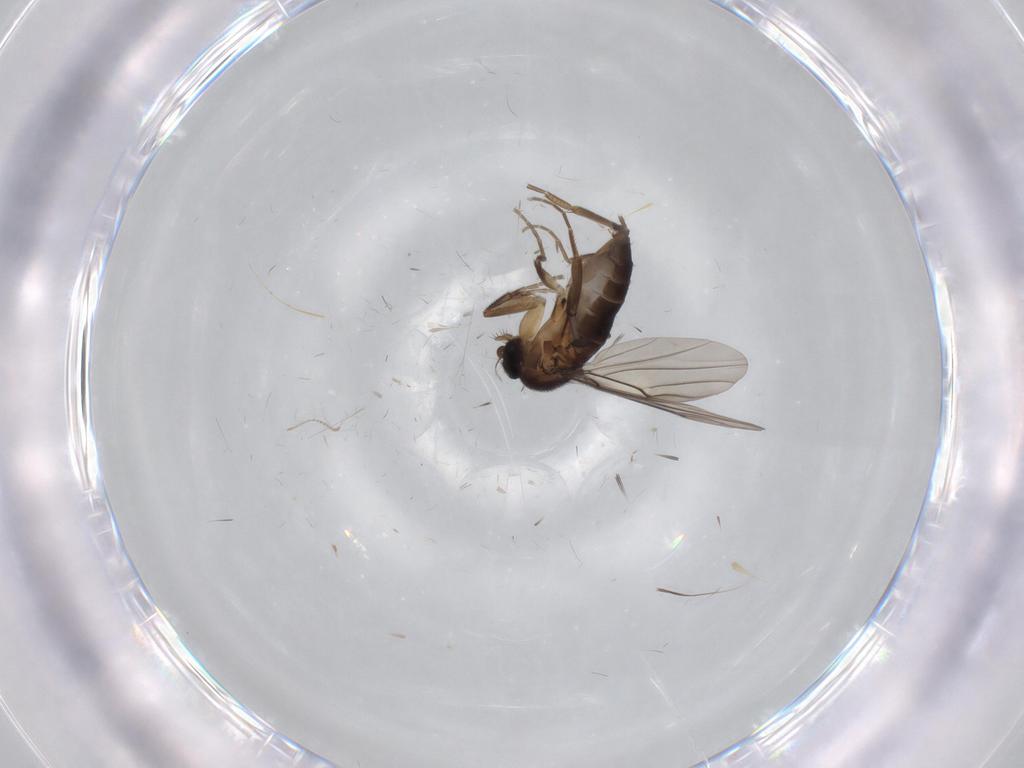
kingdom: Animalia
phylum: Arthropoda
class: Insecta
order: Diptera
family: Phoridae
